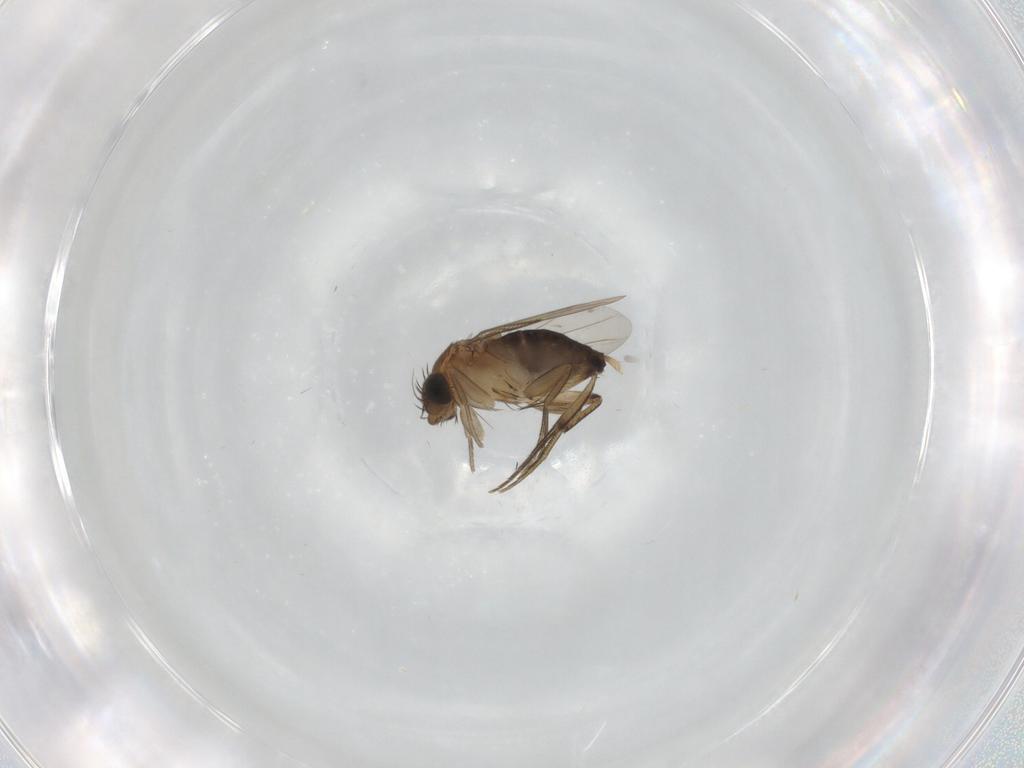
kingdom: Animalia
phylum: Arthropoda
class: Insecta
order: Diptera
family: Phoridae
